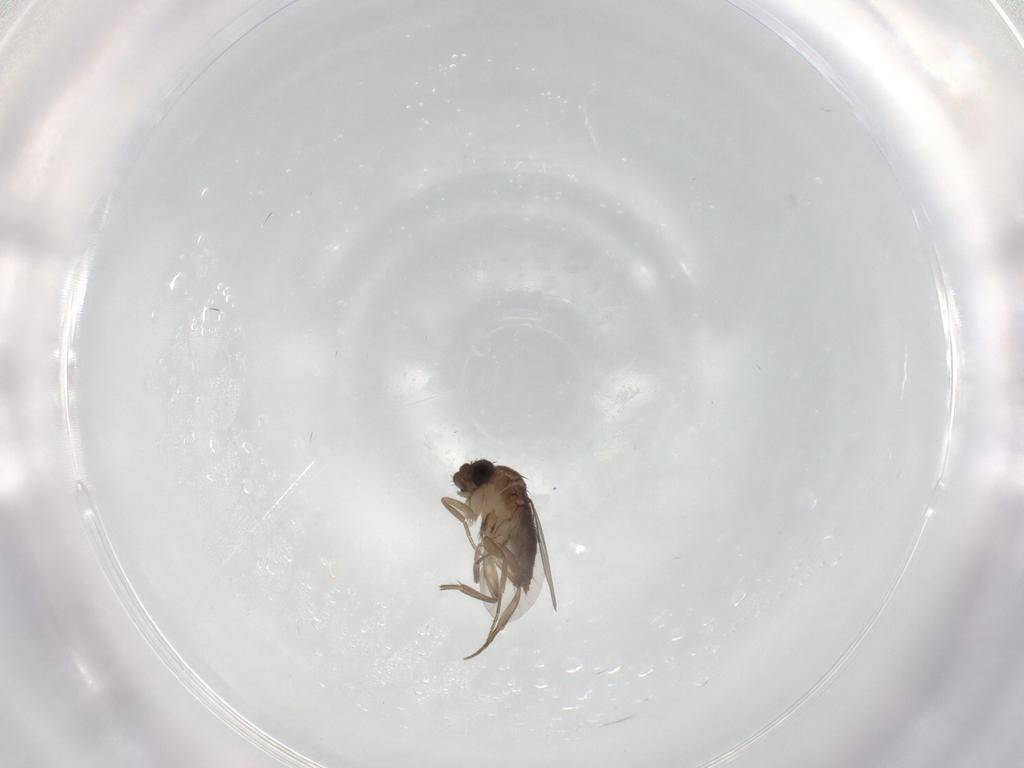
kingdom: Animalia
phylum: Arthropoda
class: Insecta
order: Diptera
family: Phoridae
